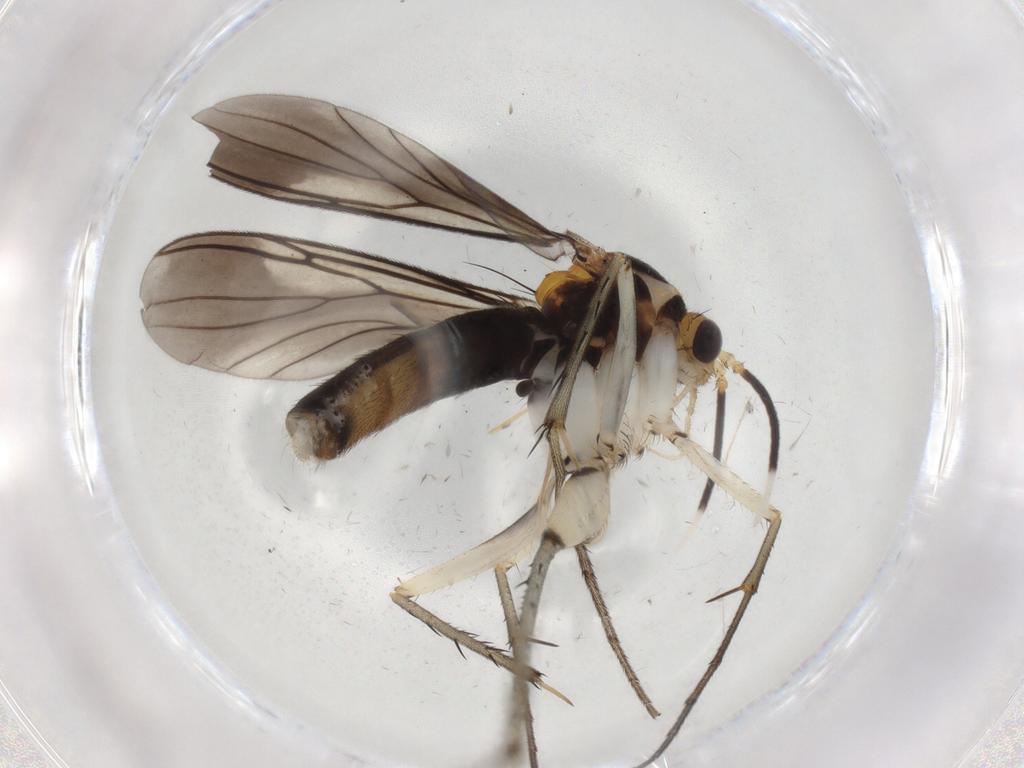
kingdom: Animalia
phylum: Arthropoda
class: Insecta
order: Diptera
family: Phoridae
